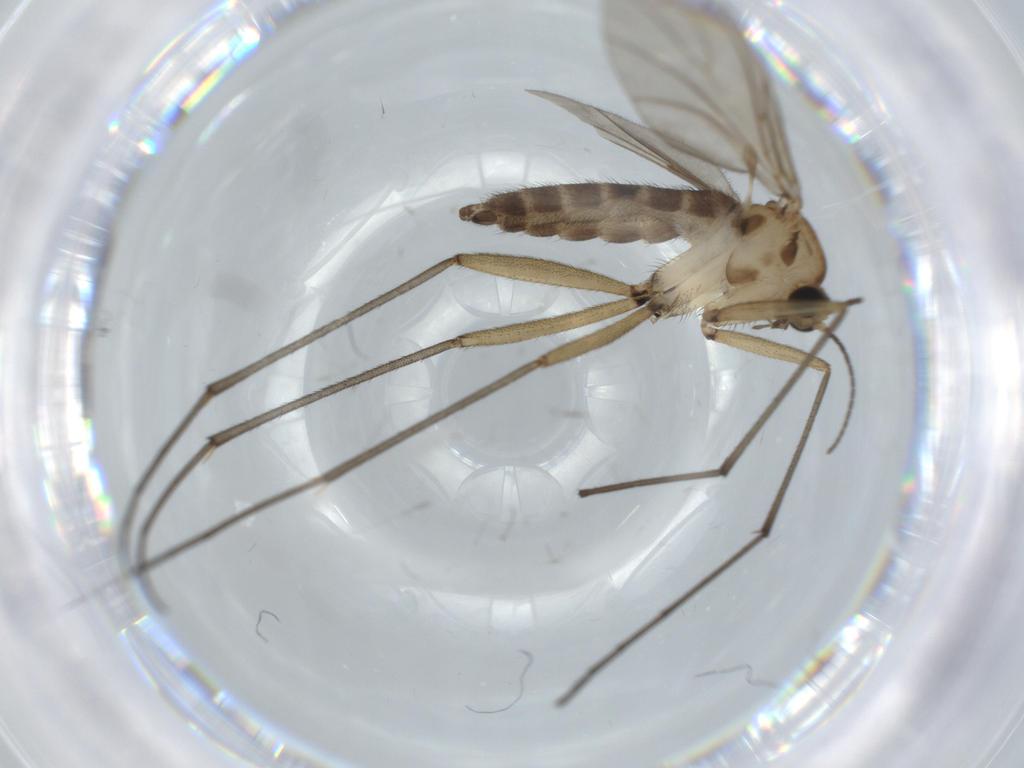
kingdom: Animalia
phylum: Arthropoda
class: Insecta
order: Diptera
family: Sciaridae
